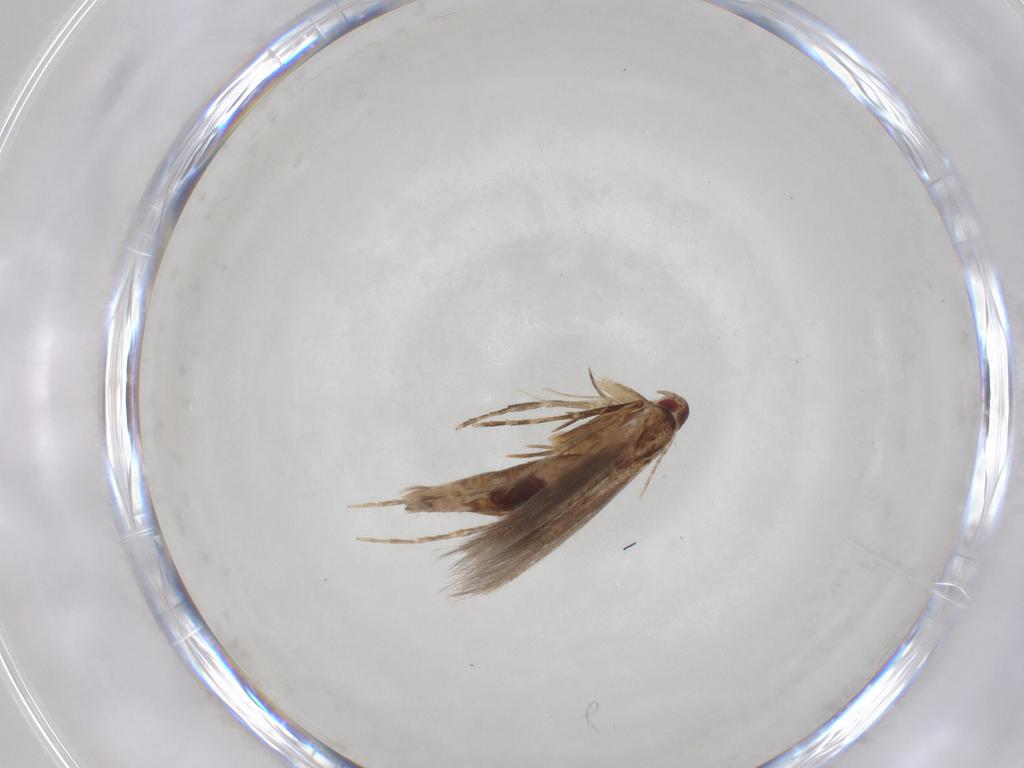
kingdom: Animalia
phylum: Arthropoda
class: Insecta
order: Lepidoptera
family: Cosmopterigidae
